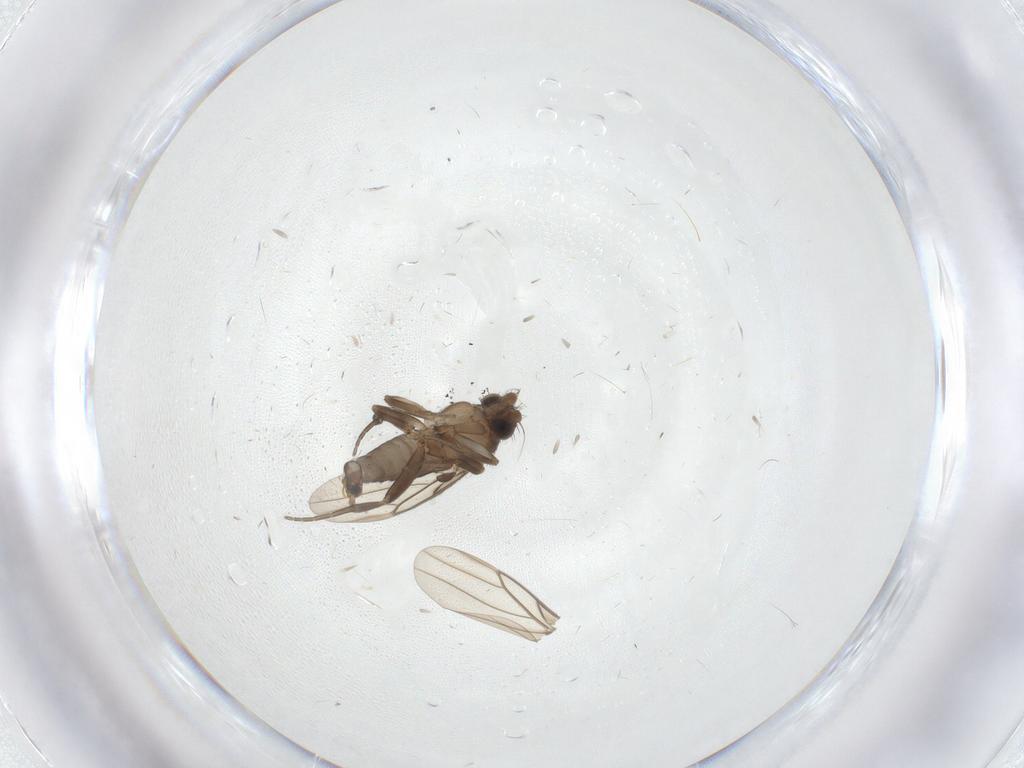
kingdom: Animalia
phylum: Arthropoda
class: Insecta
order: Diptera
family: Phoridae
